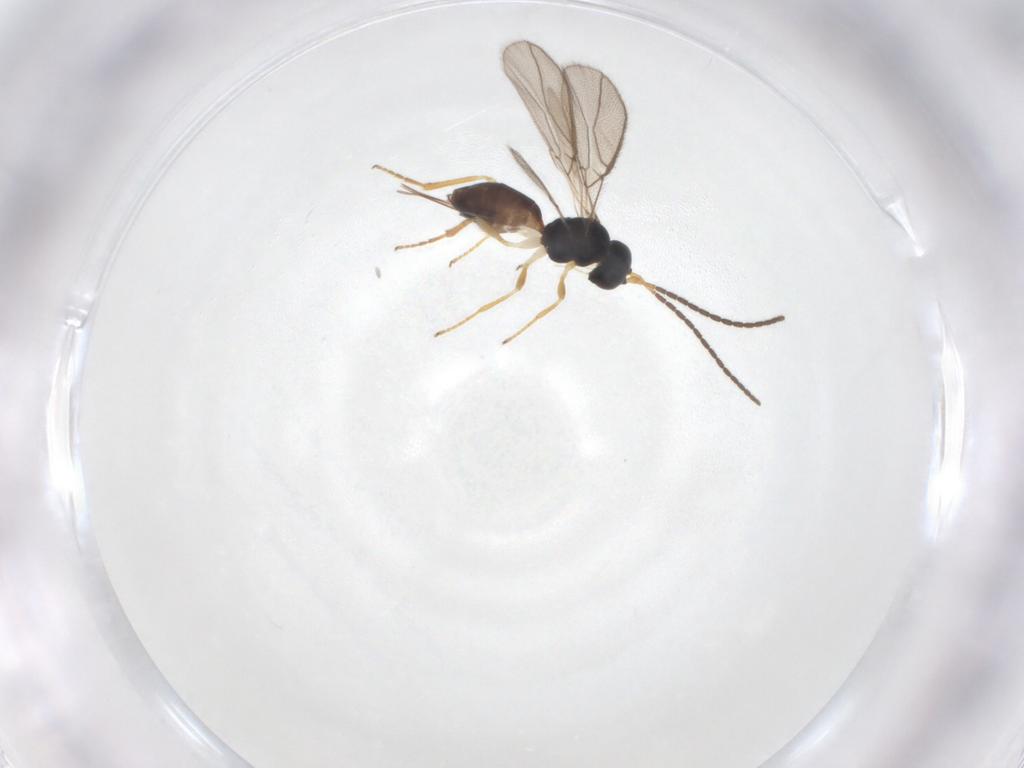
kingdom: Animalia
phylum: Arthropoda
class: Insecta
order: Hymenoptera
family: Braconidae
